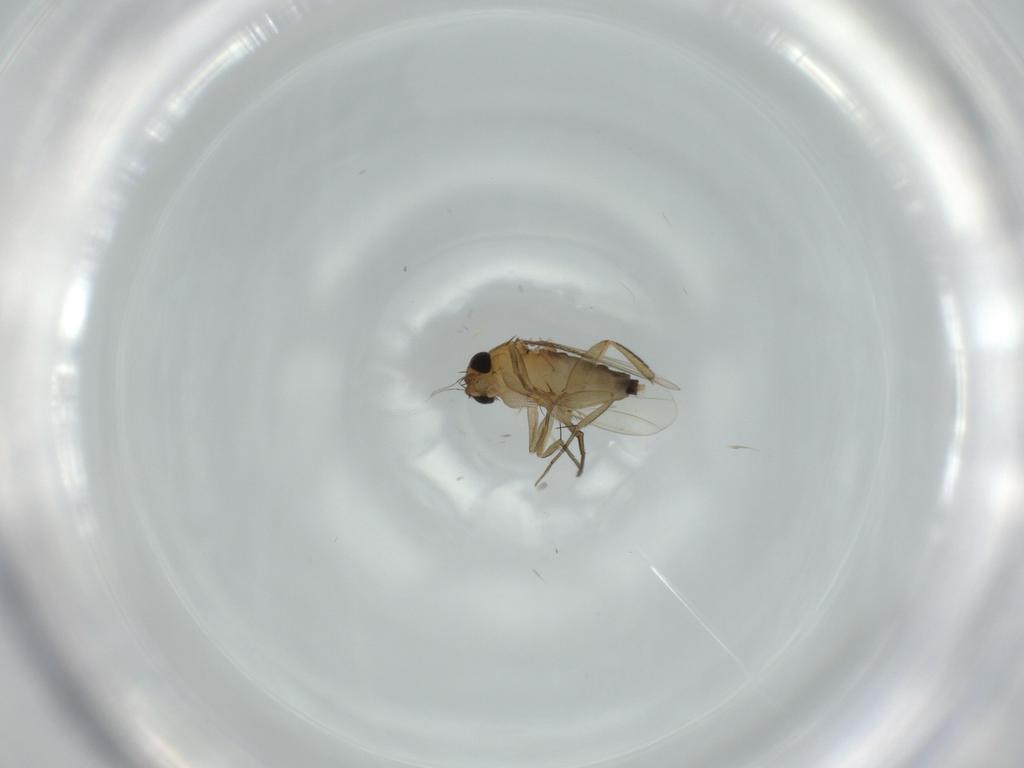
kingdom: Animalia
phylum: Arthropoda
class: Insecta
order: Diptera
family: Phoridae
